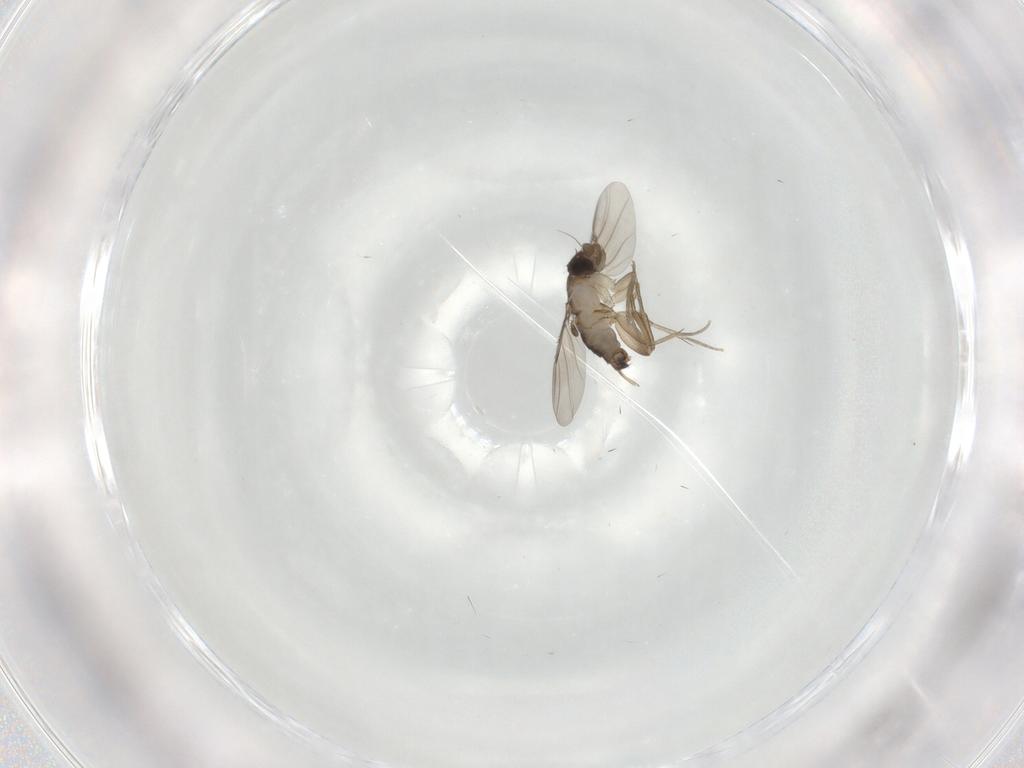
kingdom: Animalia
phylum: Arthropoda
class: Insecta
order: Diptera
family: Phoridae
